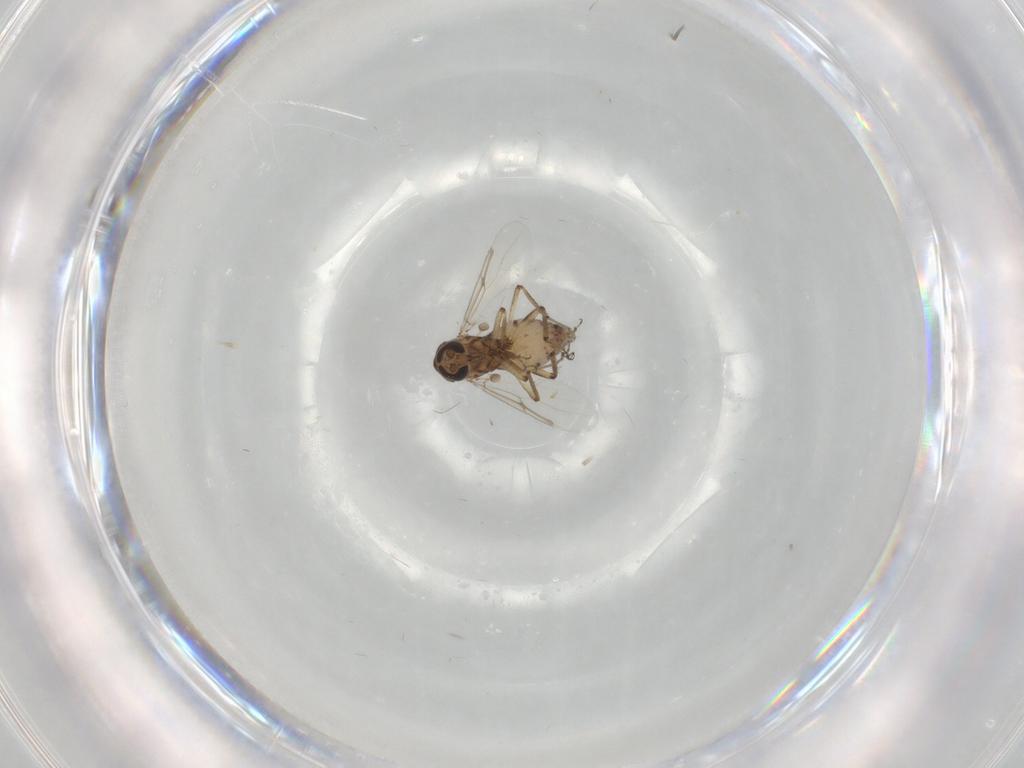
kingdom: Animalia
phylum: Arthropoda
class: Insecta
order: Diptera
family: Ceratopogonidae
